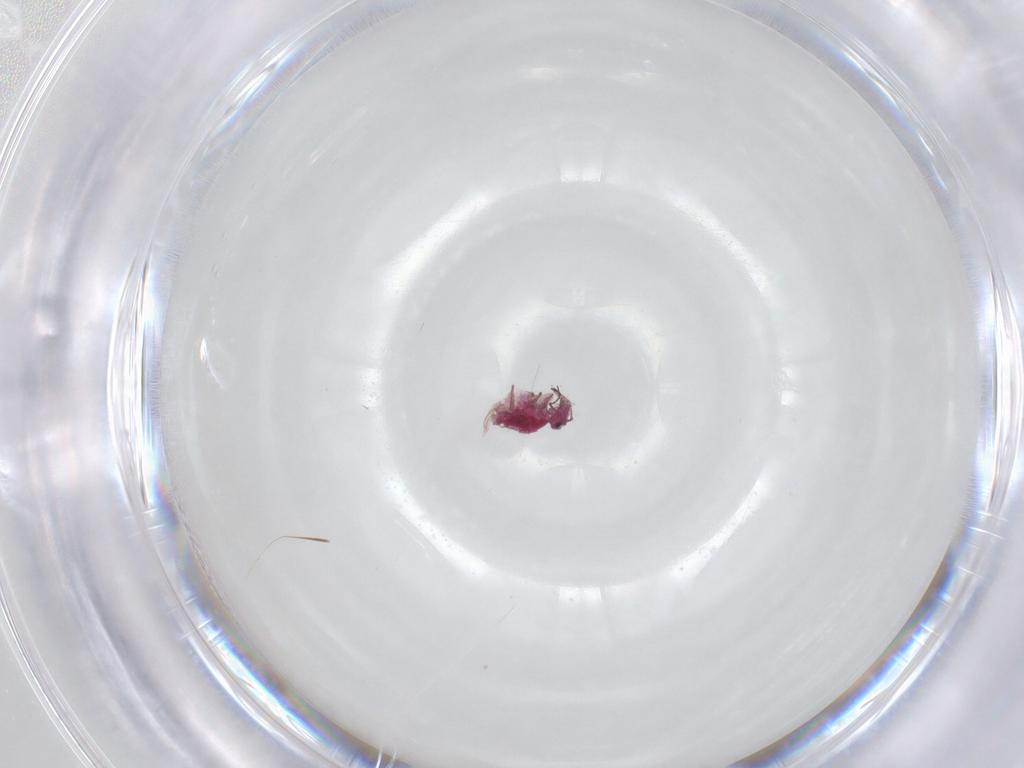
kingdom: Animalia
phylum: Arthropoda
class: Collembola
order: Symphypleona
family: Sminthuridae
